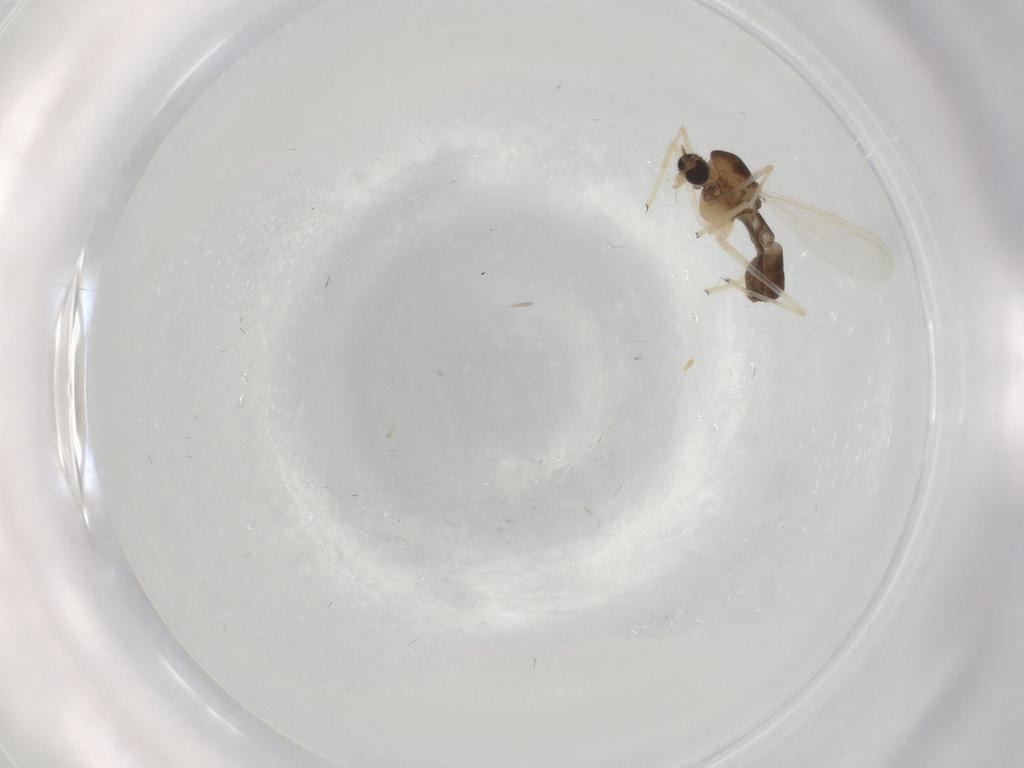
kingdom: Animalia
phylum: Arthropoda
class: Insecta
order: Diptera
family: Chironomidae
